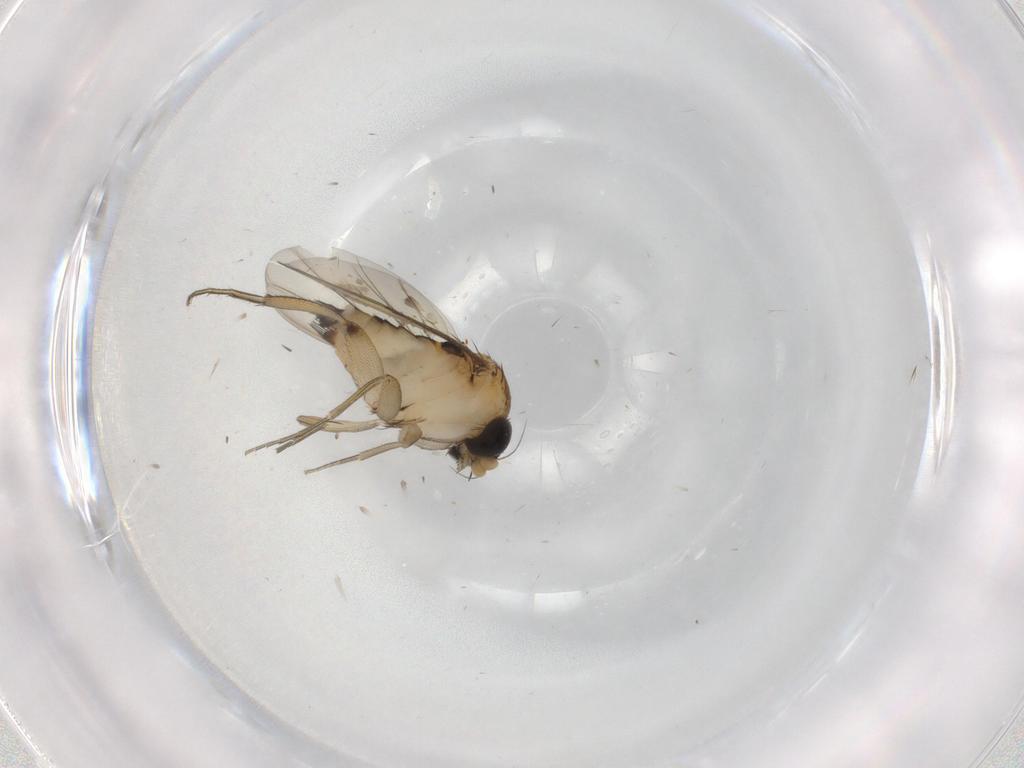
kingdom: Animalia
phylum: Arthropoda
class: Insecta
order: Diptera
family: Phoridae
